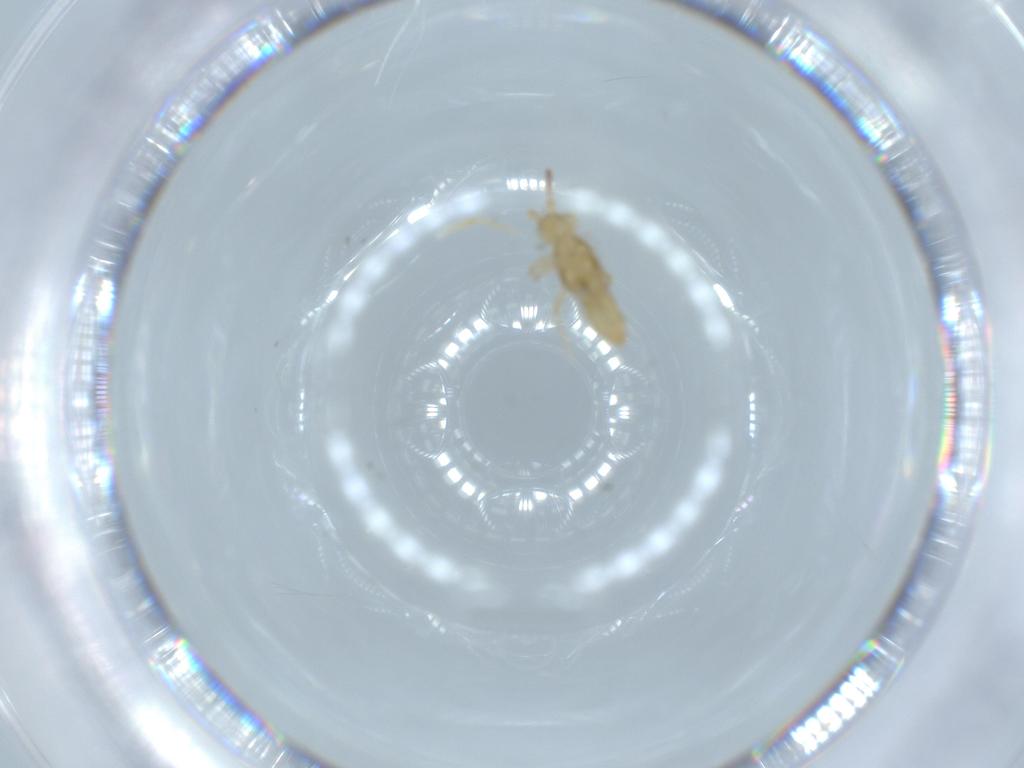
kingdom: Animalia
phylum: Arthropoda
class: Collembola
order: Entomobryomorpha
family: Entomobryidae
